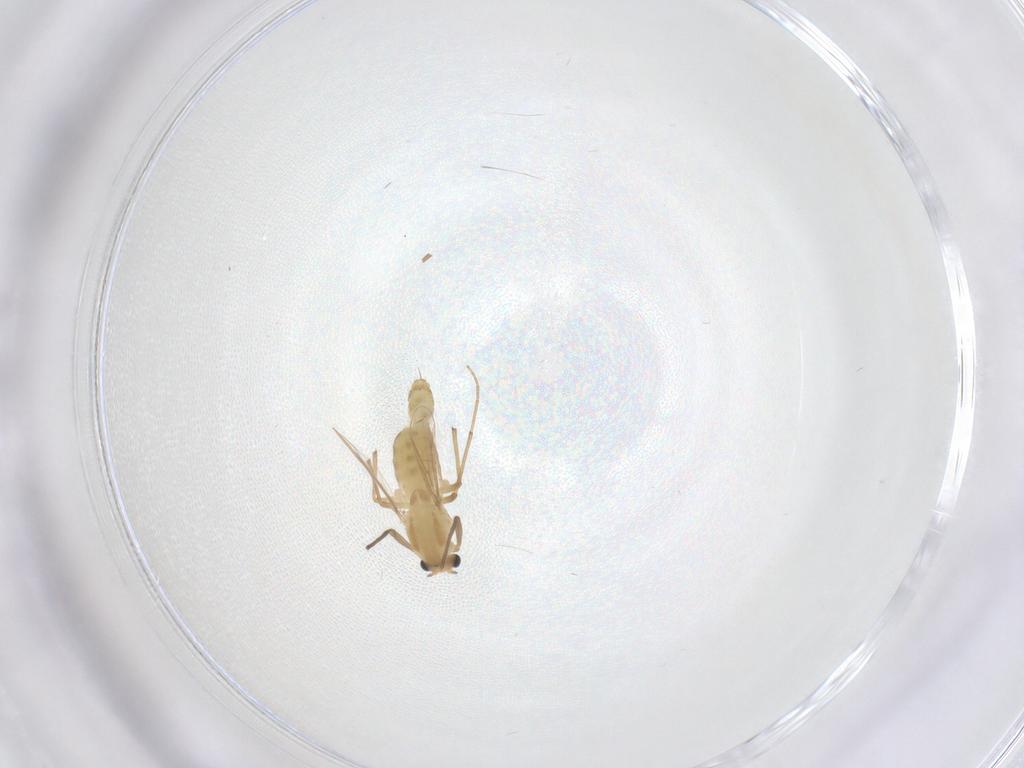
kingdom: Animalia
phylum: Arthropoda
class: Insecta
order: Diptera
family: Chironomidae
